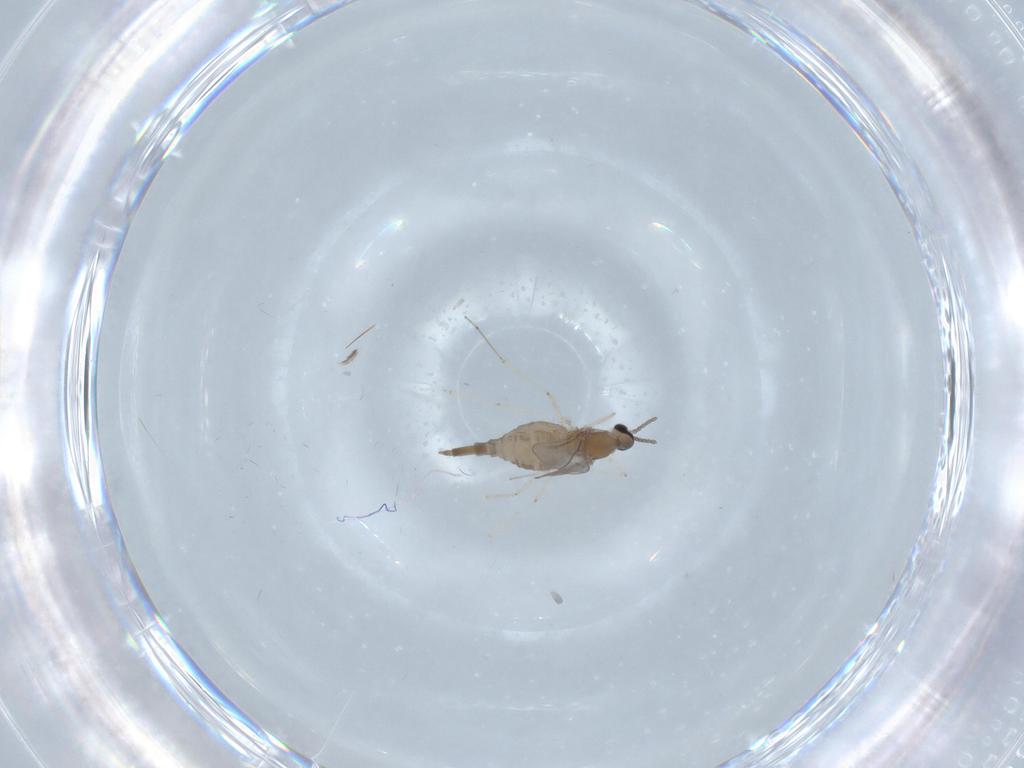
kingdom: Animalia
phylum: Arthropoda
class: Insecta
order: Diptera
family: Cecidomyiidae
